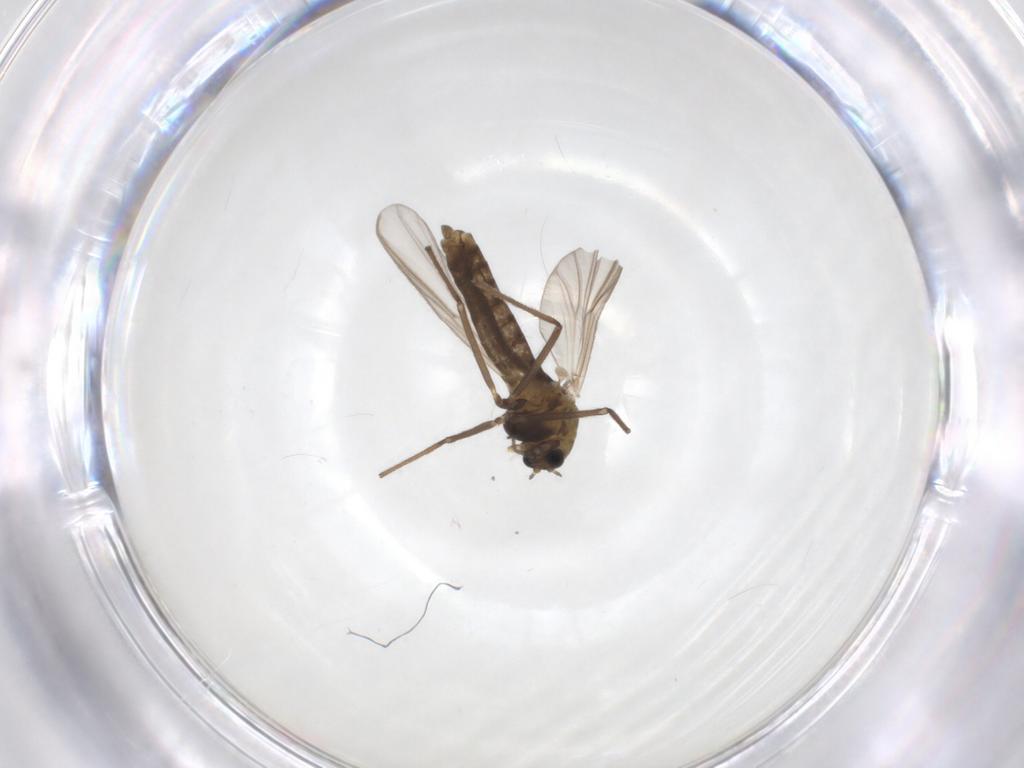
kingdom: Animalia
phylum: Arthropoda
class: Insecta
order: Diptera
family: Chironomidae
